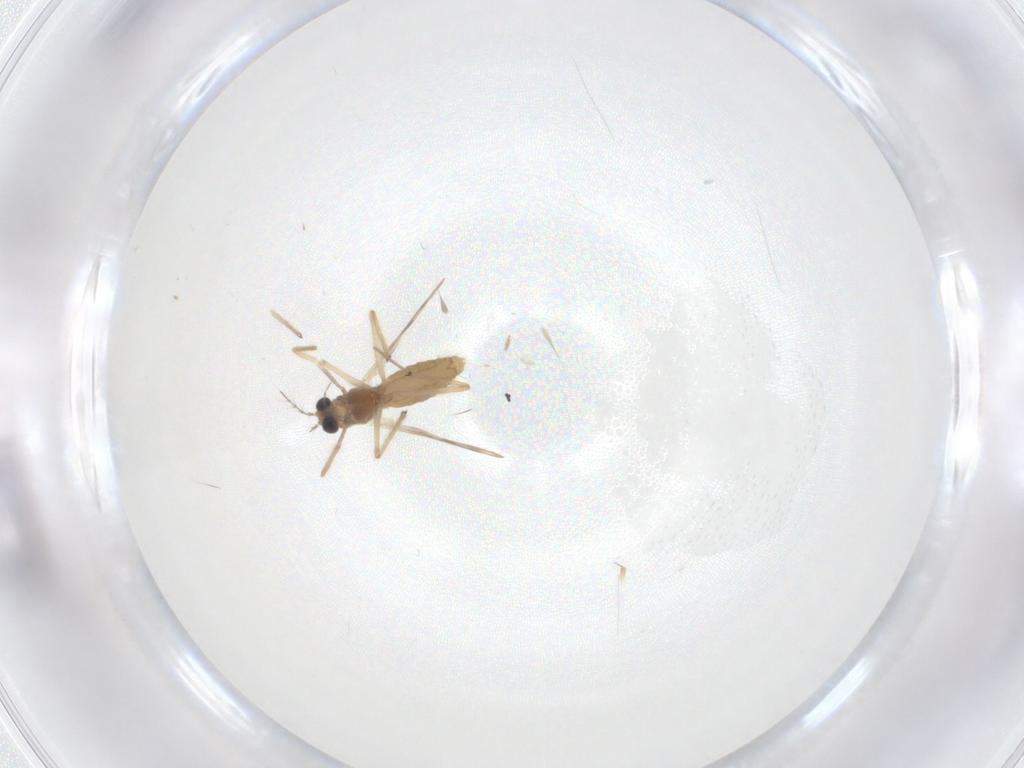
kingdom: Animalia
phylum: Arthropoda
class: Insecta
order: Diptera
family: Chironomidae
